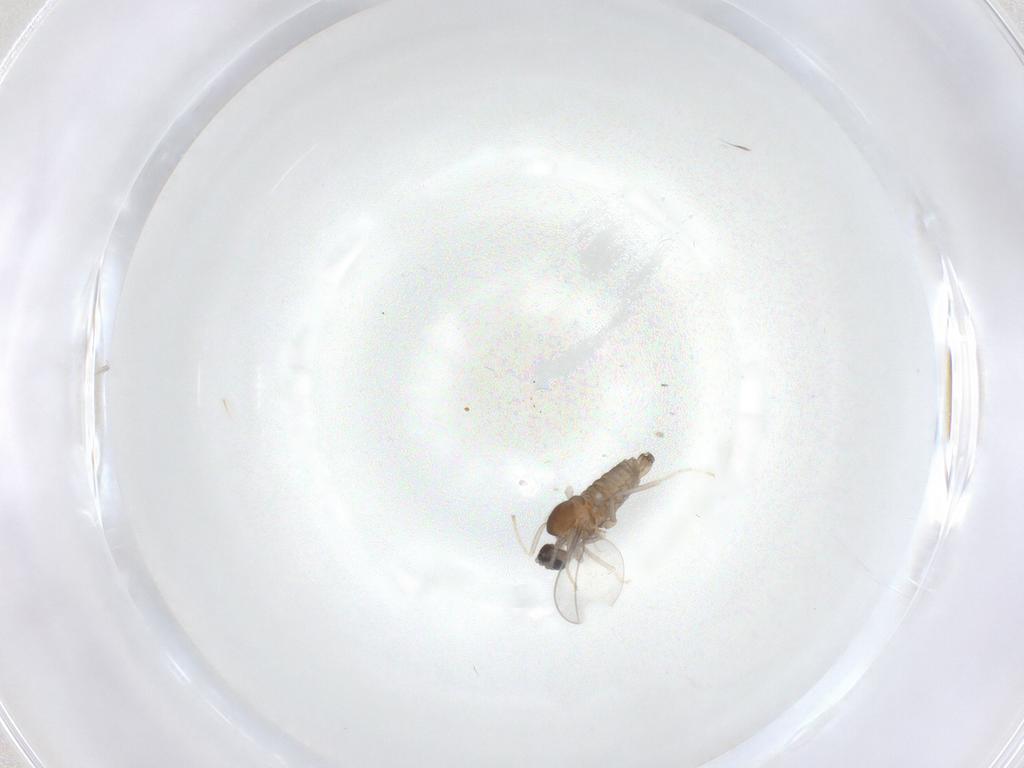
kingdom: Animalia
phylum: Arthropoda
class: Insecta
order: Diptera
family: Cecidomyiidae
